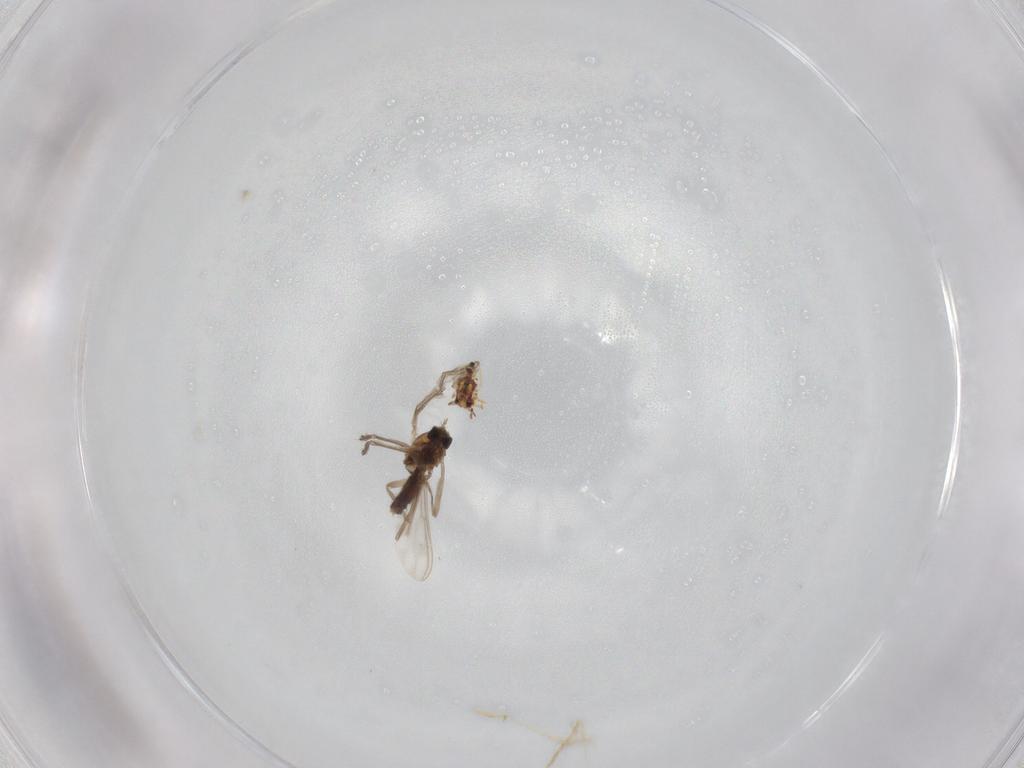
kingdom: Animalia
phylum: Arthropoda
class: Insecta
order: Diptera
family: Chironomidae
